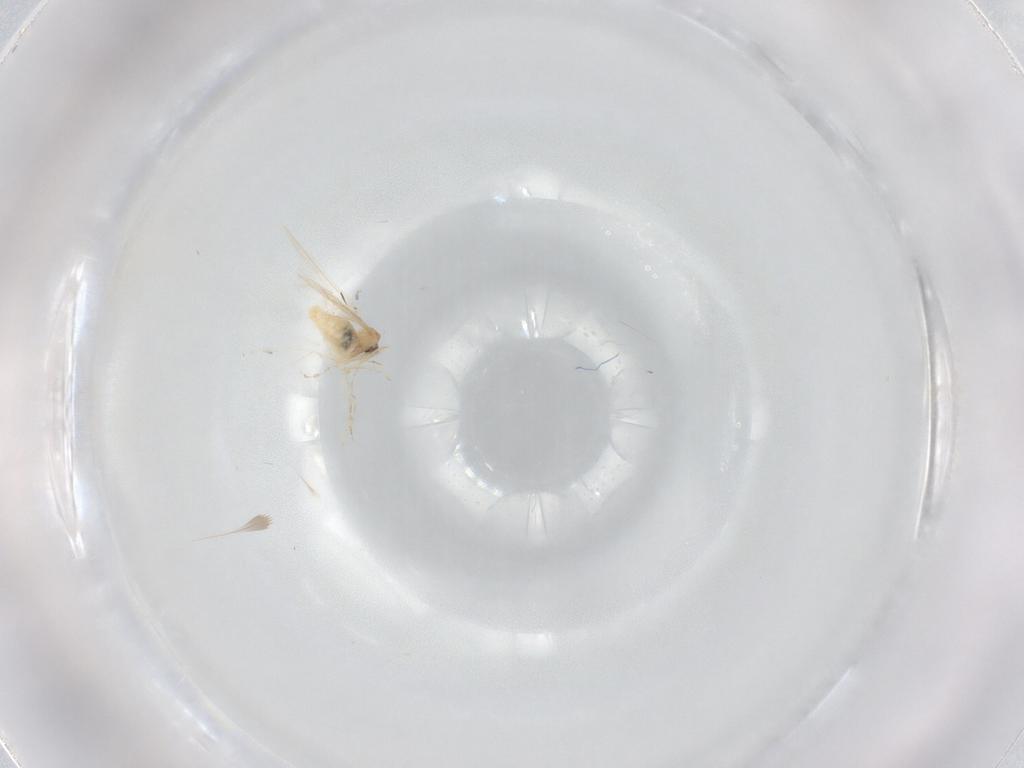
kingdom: Animalia
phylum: Arthropoda
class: Insecta
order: Diptera
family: Cecidomyiidae
